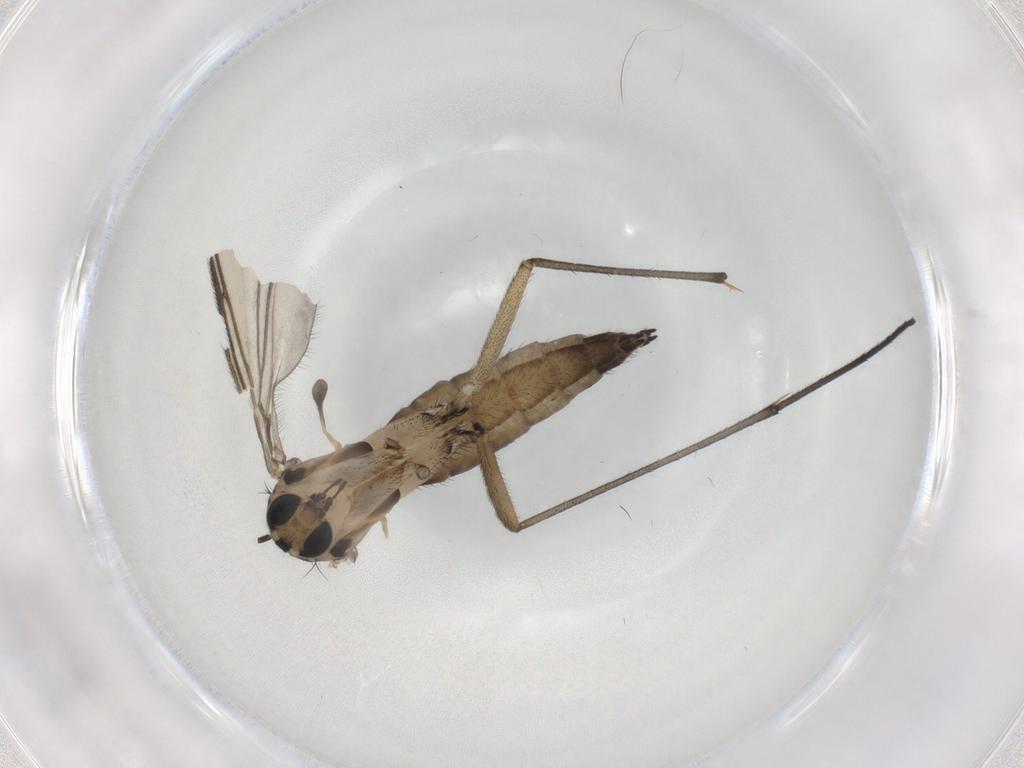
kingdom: Animalia
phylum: Arthropoda
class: Insecta
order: Diptera
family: Sciaridae
